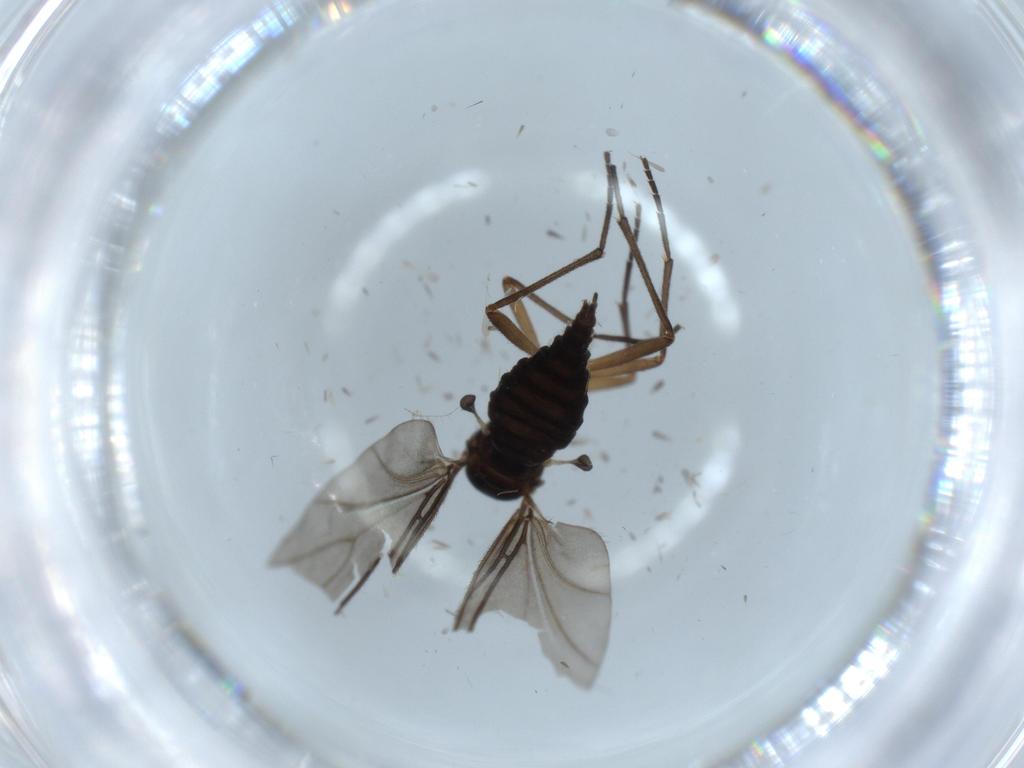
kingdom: Animalia
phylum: Arthropoda
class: Insecta
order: Diptera
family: Sciaridae
